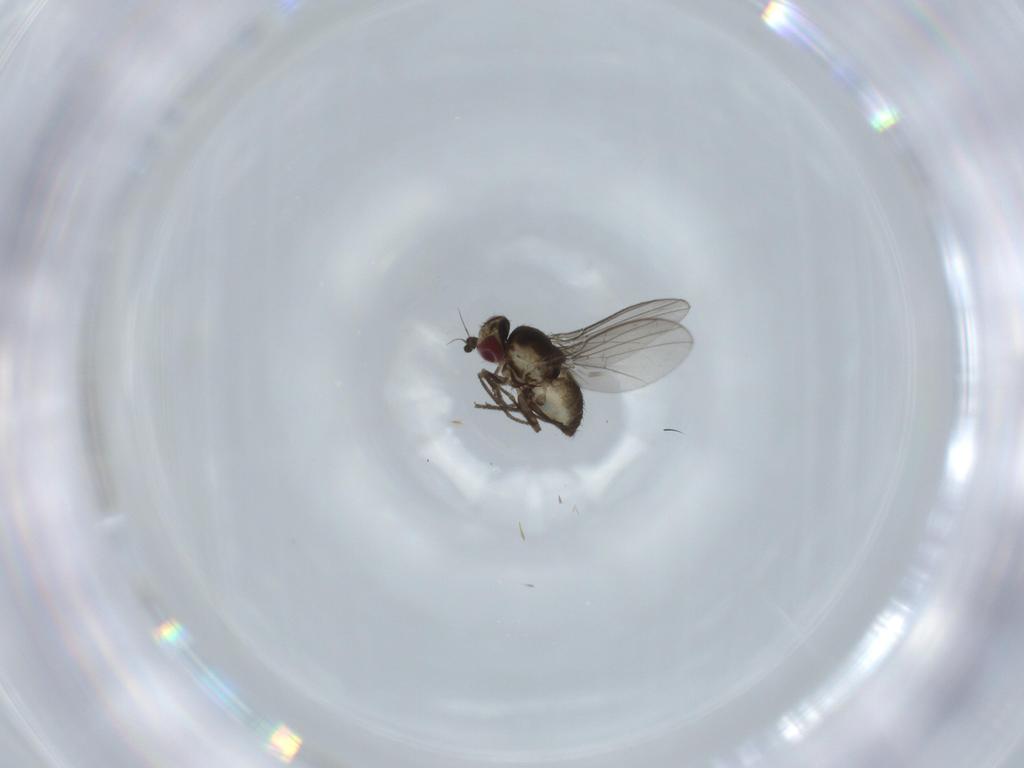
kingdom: Animalia
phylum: Arthropoda
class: Insecta
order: Diptera
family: Agromyzidae
